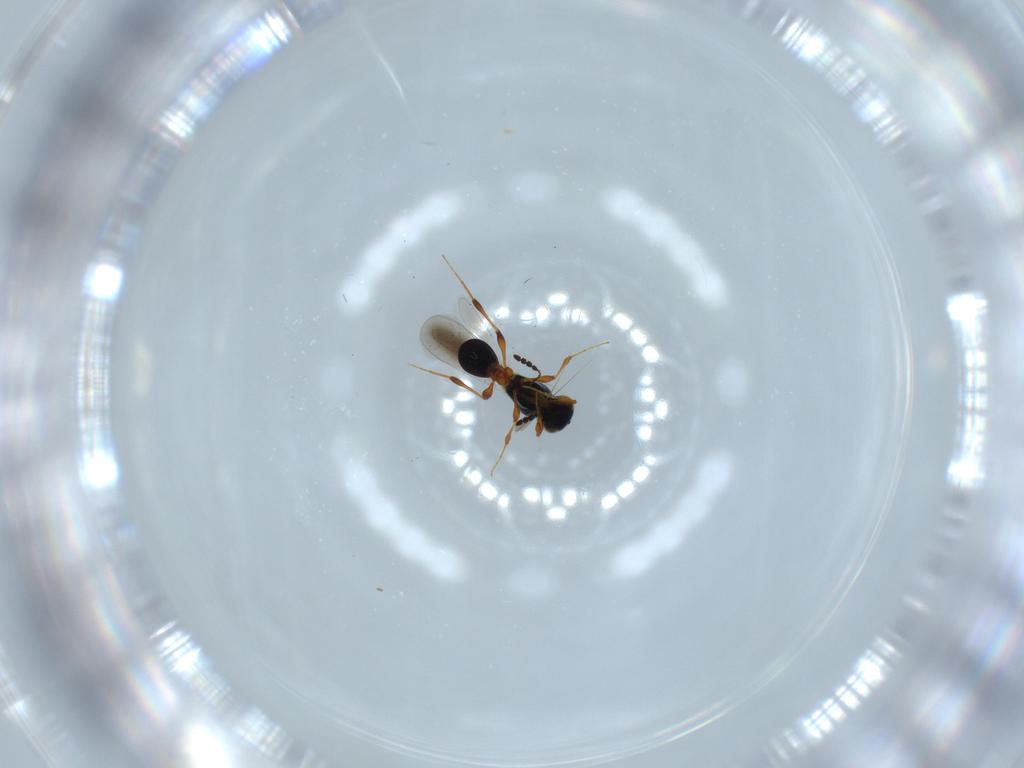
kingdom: Animalia
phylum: Arthropoda
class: Insecta
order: Hymenoptera
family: Platygastridae
